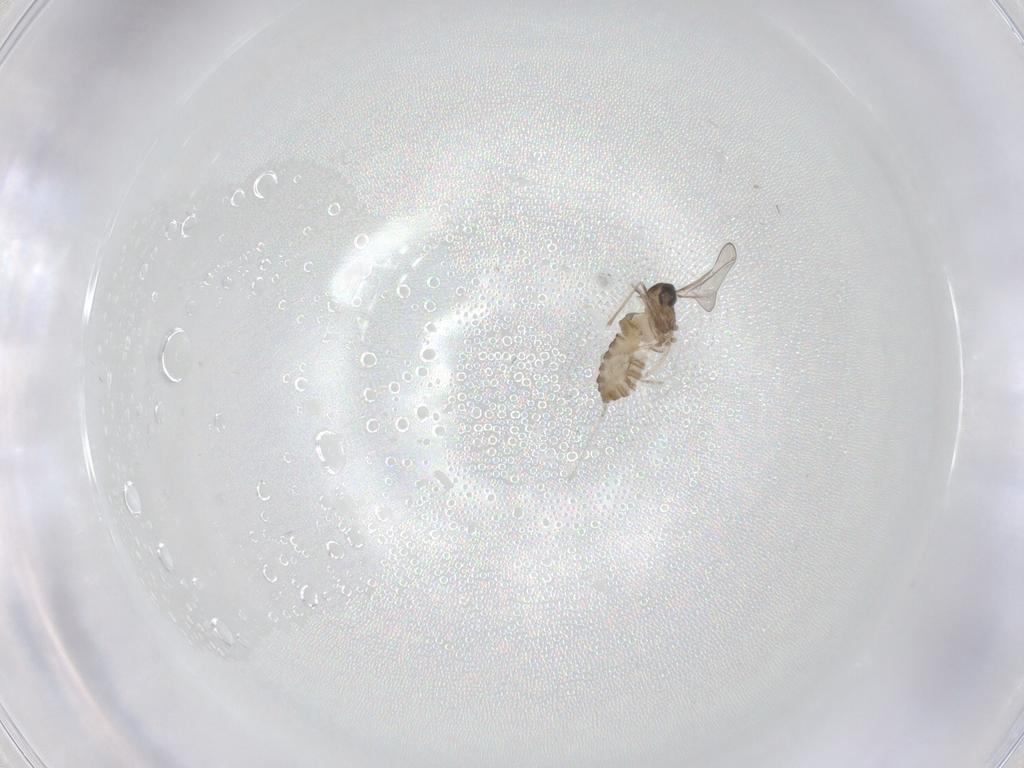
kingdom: Animalia
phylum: Arthropoda
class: Insecta
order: Diptera
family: Cecidomyiidae
